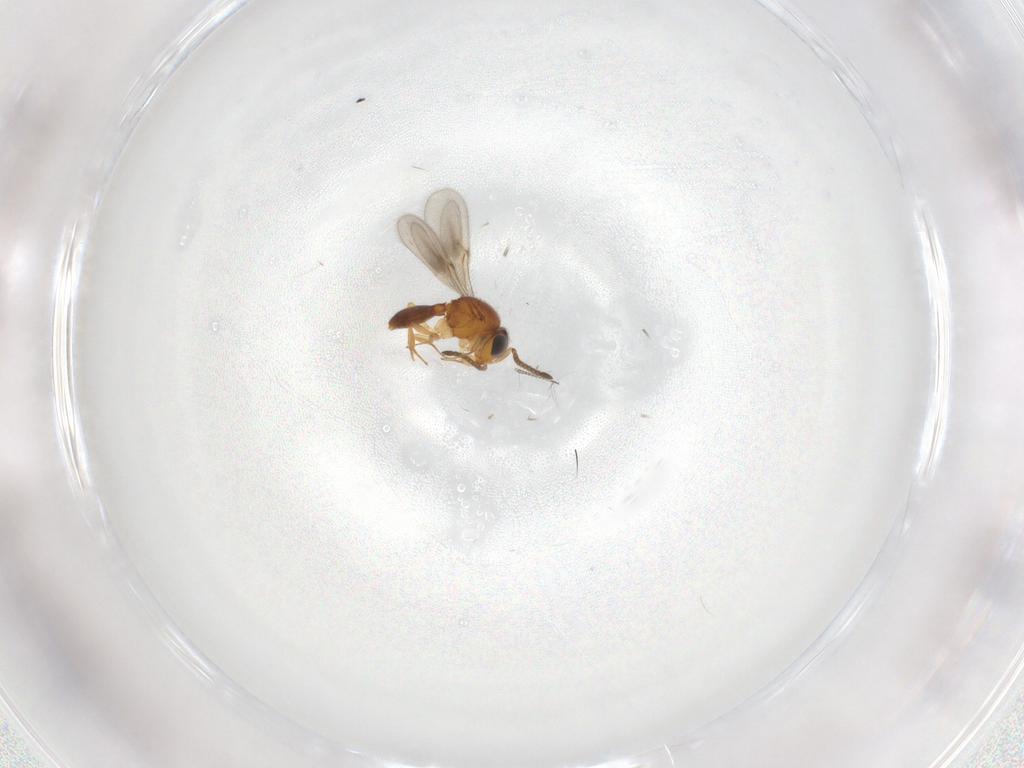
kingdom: Animalia
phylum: Arthropoda
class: Insecta
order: Hymenoptera
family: Scelionidae
